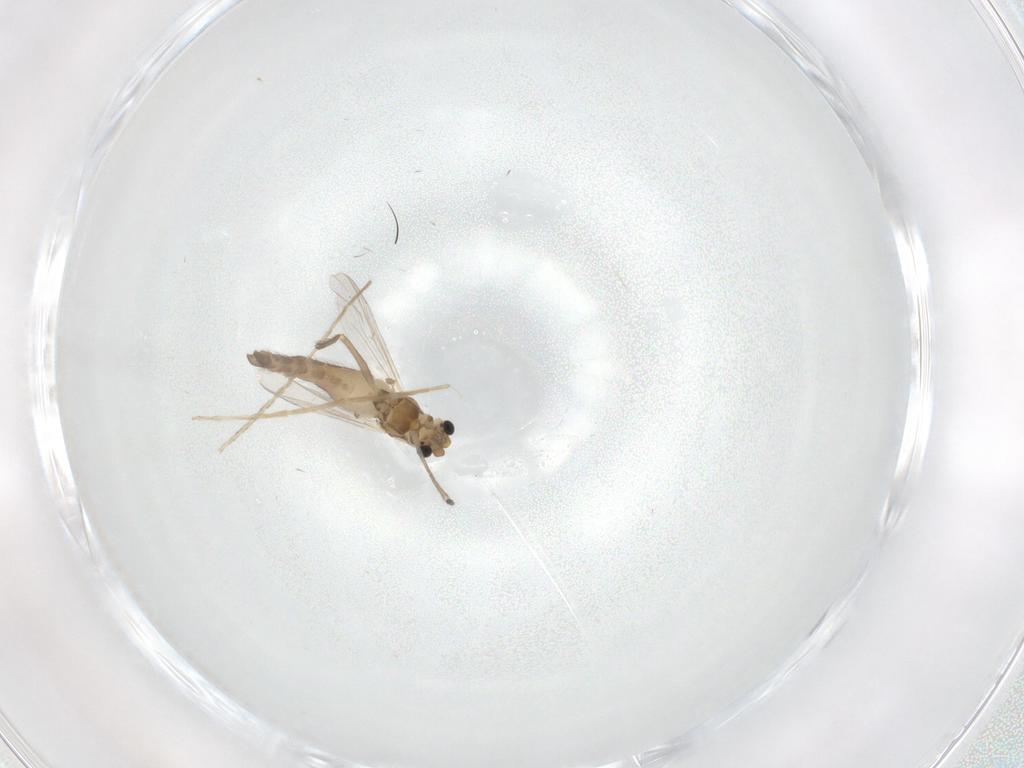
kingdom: Animalia
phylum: Arthropoda
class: Insecta
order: Diptera
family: Chironomidae
